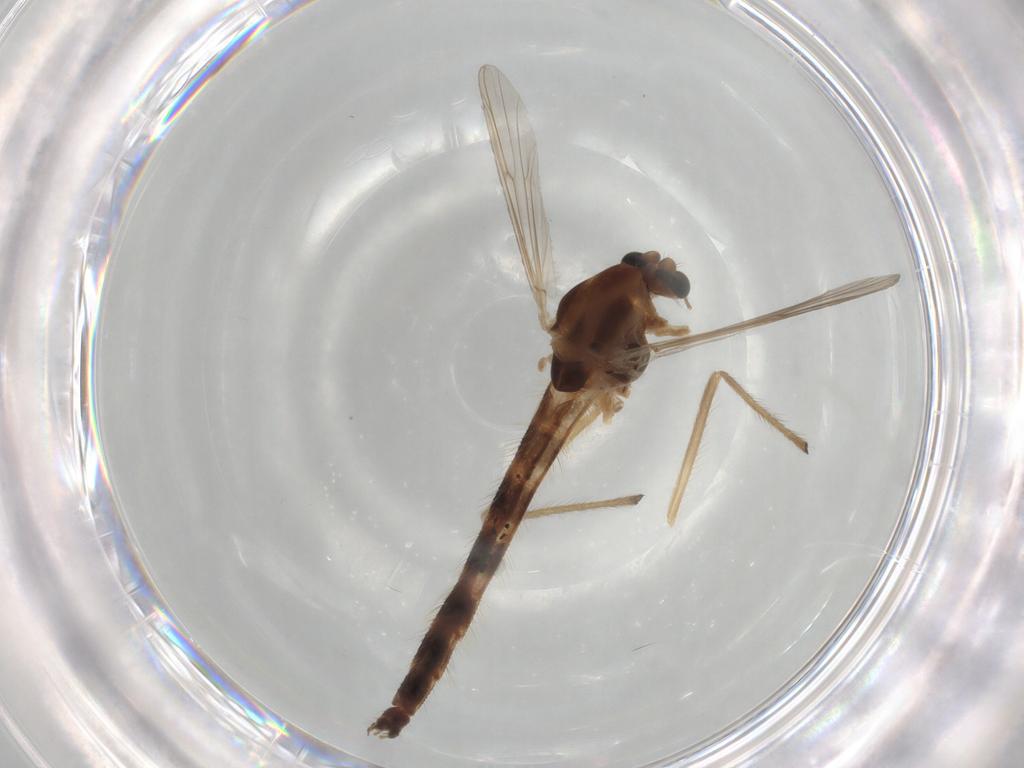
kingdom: Animalia
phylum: Arthropoda
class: Insecta
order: Diptera
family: Chironomidae
